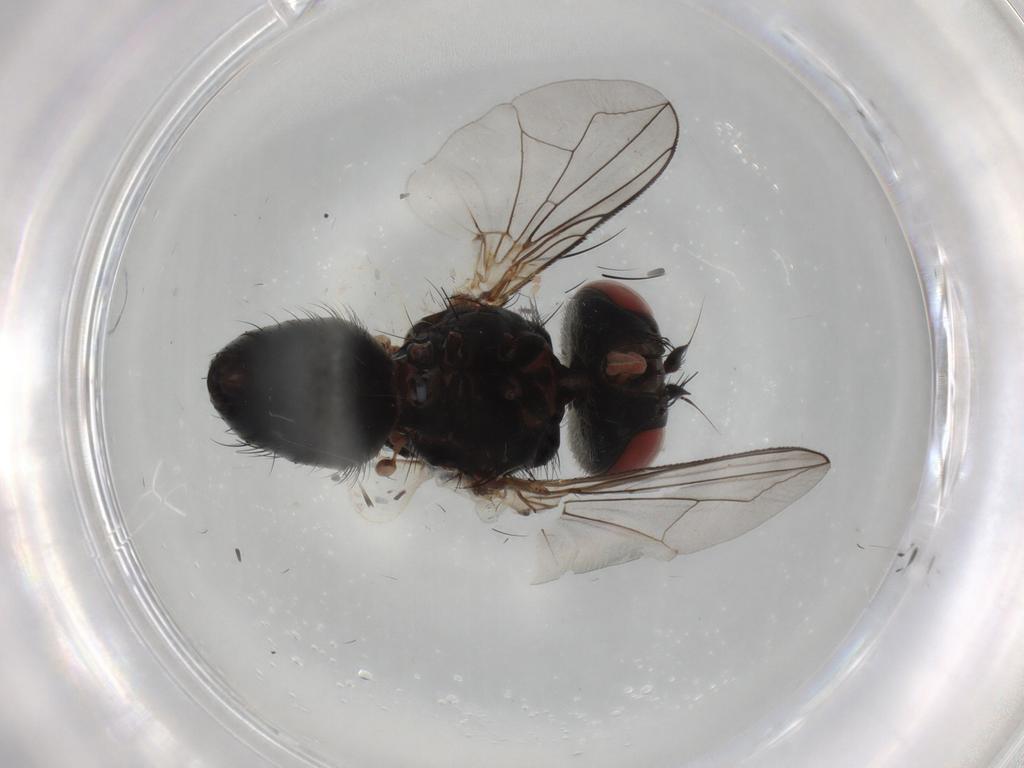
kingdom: Animalia
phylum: Arthropoda
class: Insecta
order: Diptera
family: Tachinidae
